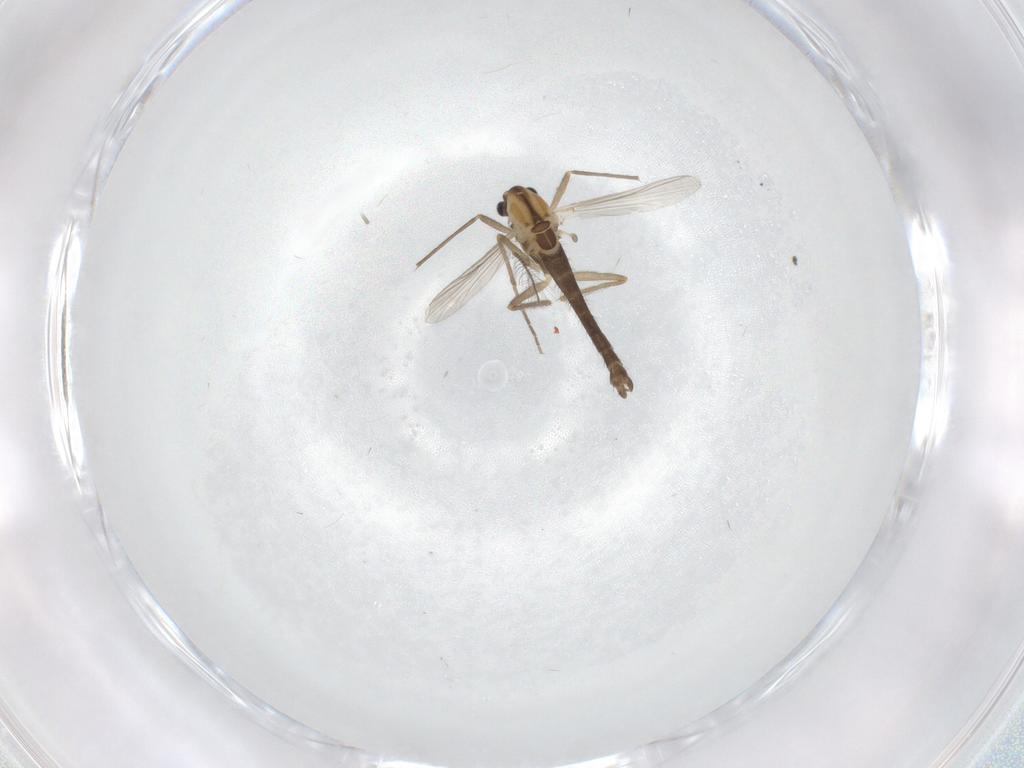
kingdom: Animalia
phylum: Arthropoda
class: Insecta
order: Diptera
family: Chironomidae
